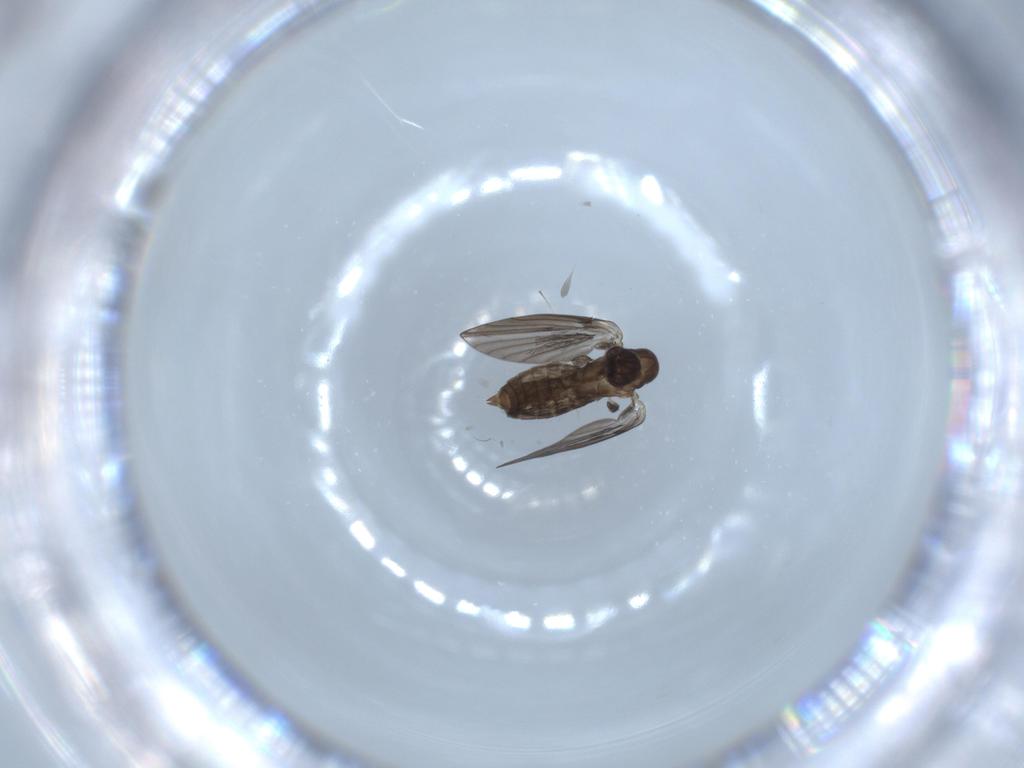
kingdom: Animalia
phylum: Arthropoda
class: Insecta
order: Diptera
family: Psychodidae
